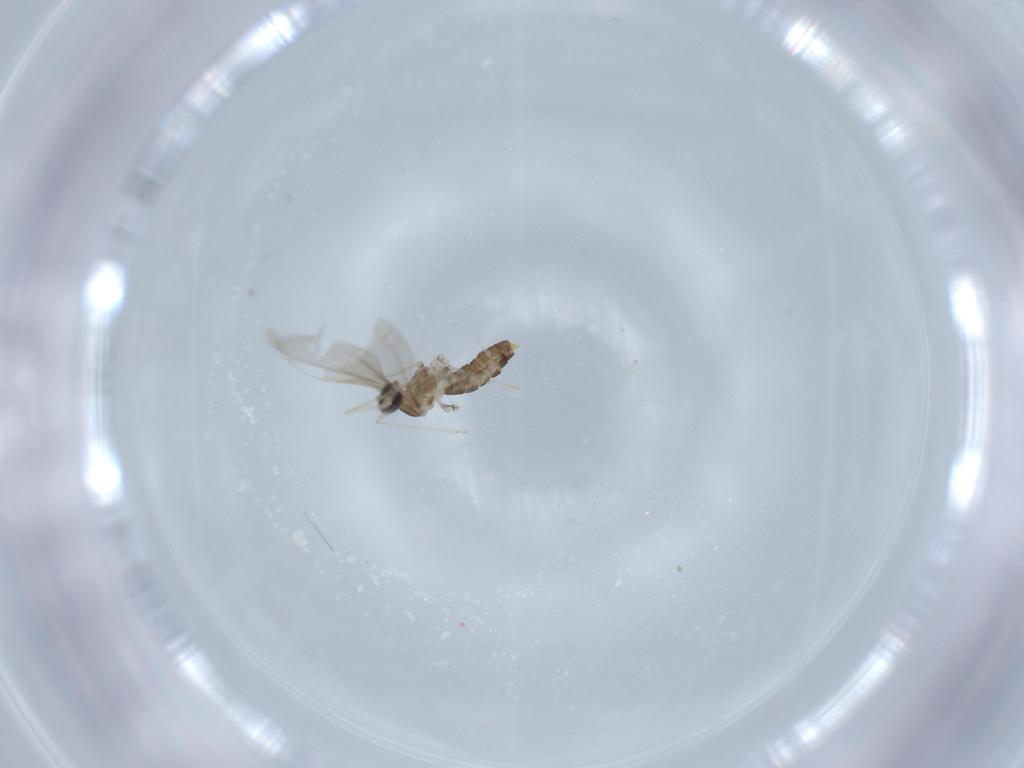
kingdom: Animalia
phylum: Arthropoda
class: Insecta
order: Diptera
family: Cecidomyiidae
